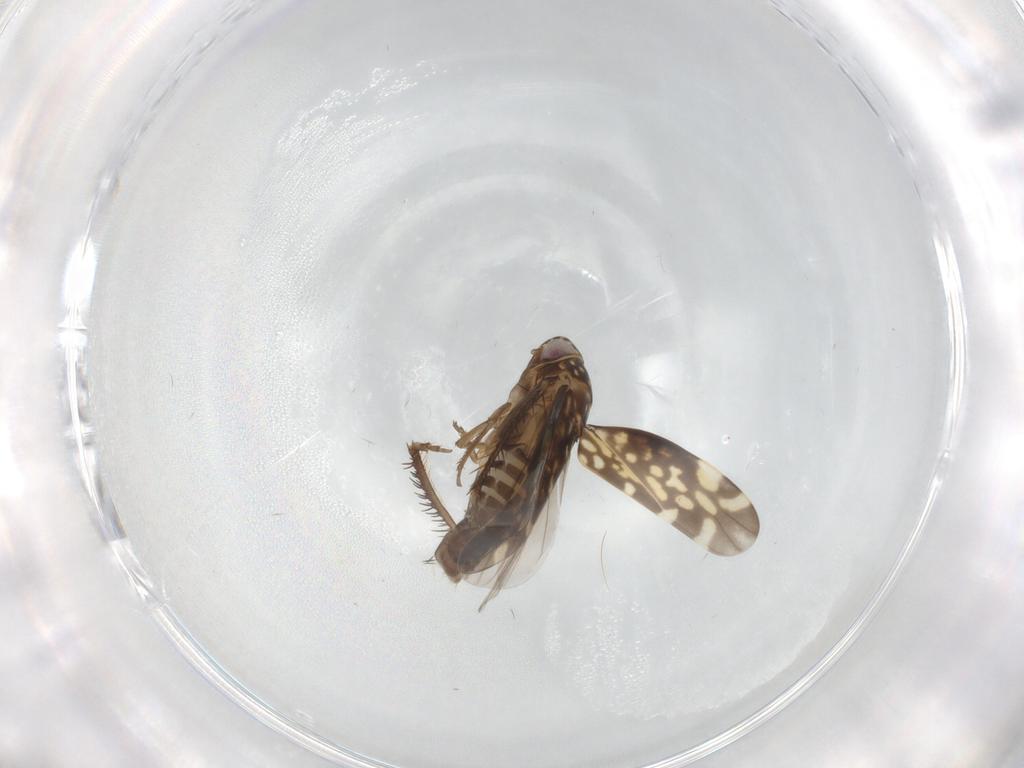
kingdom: Animalia
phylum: Arthropoda
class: Insecta
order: Hemiptera
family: Cicadellidae
